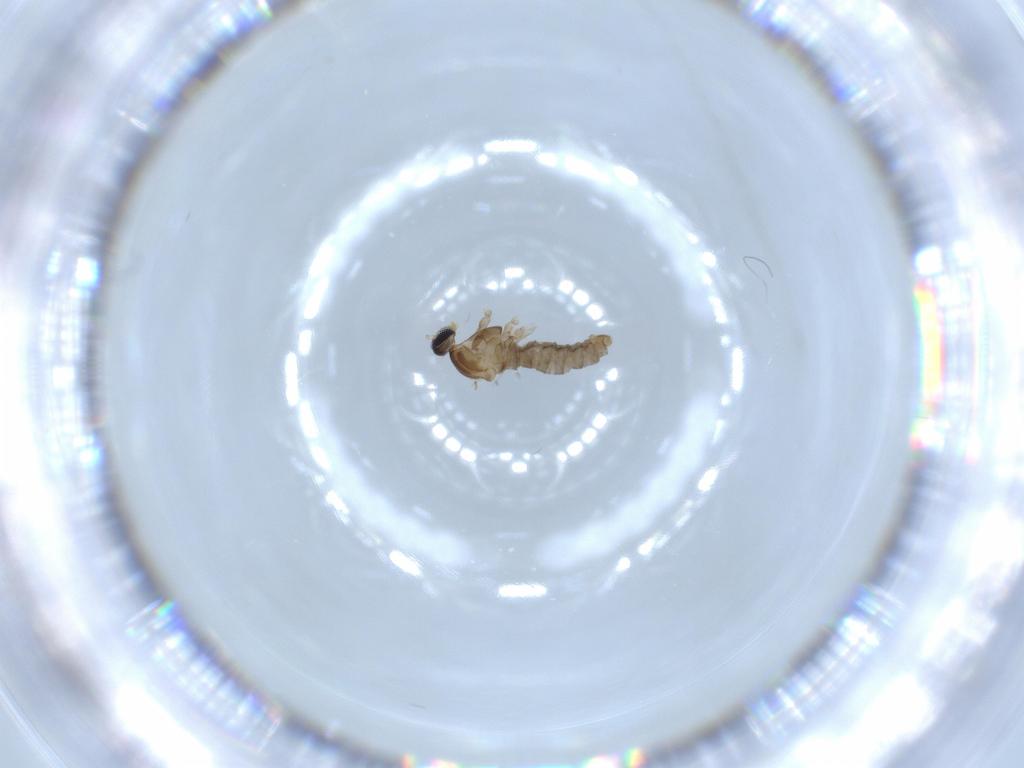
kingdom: Animalia
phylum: Arthropoda
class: Insecta
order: Diptera
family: Cecidomyiidae
